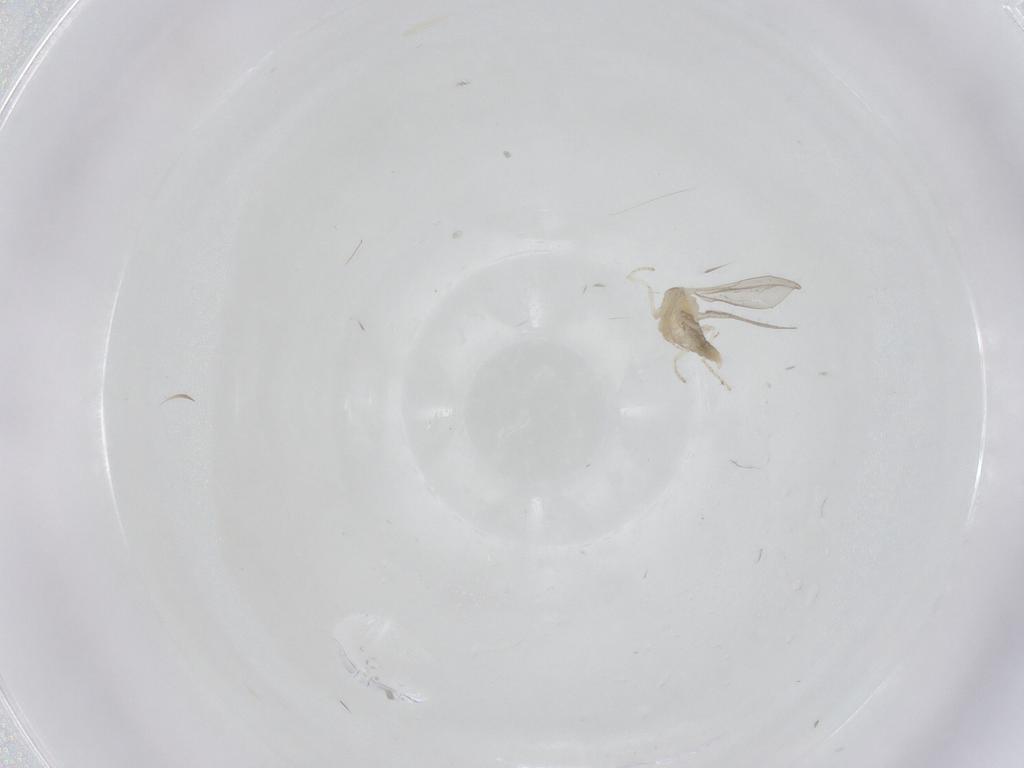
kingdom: Animalia
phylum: Arthropoda
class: Insecta
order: Diptera
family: Cecidomyiidae
